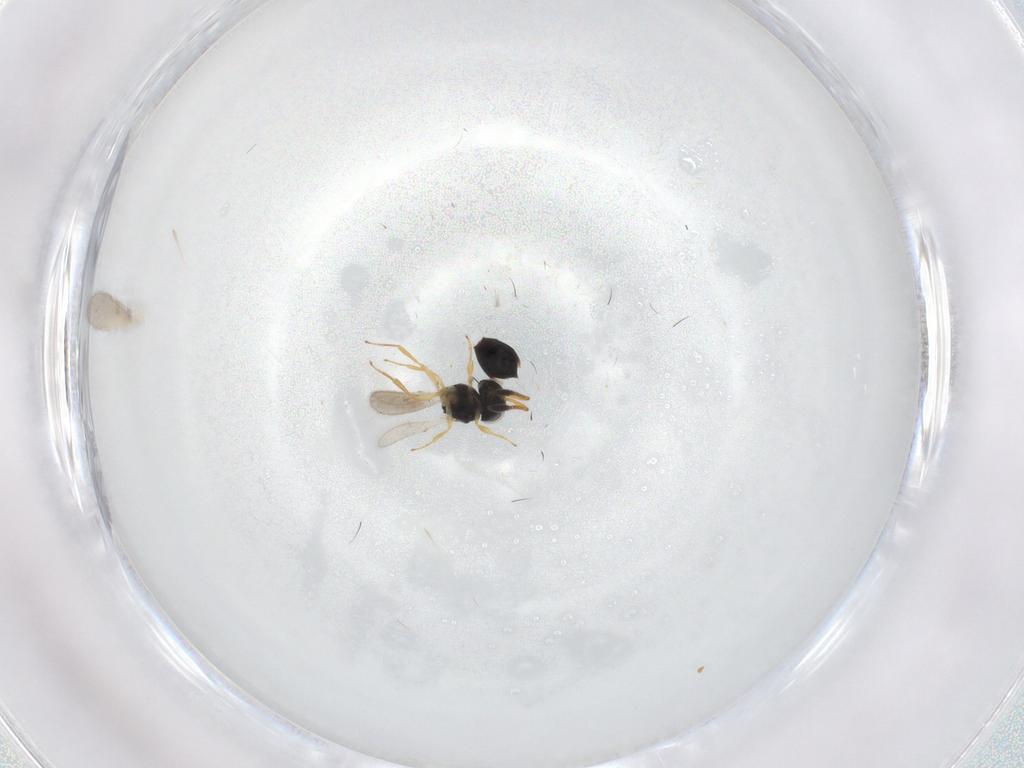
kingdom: Animalia
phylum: Arthropoda
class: Insecta
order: Hymenoptera
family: Scelionidae
